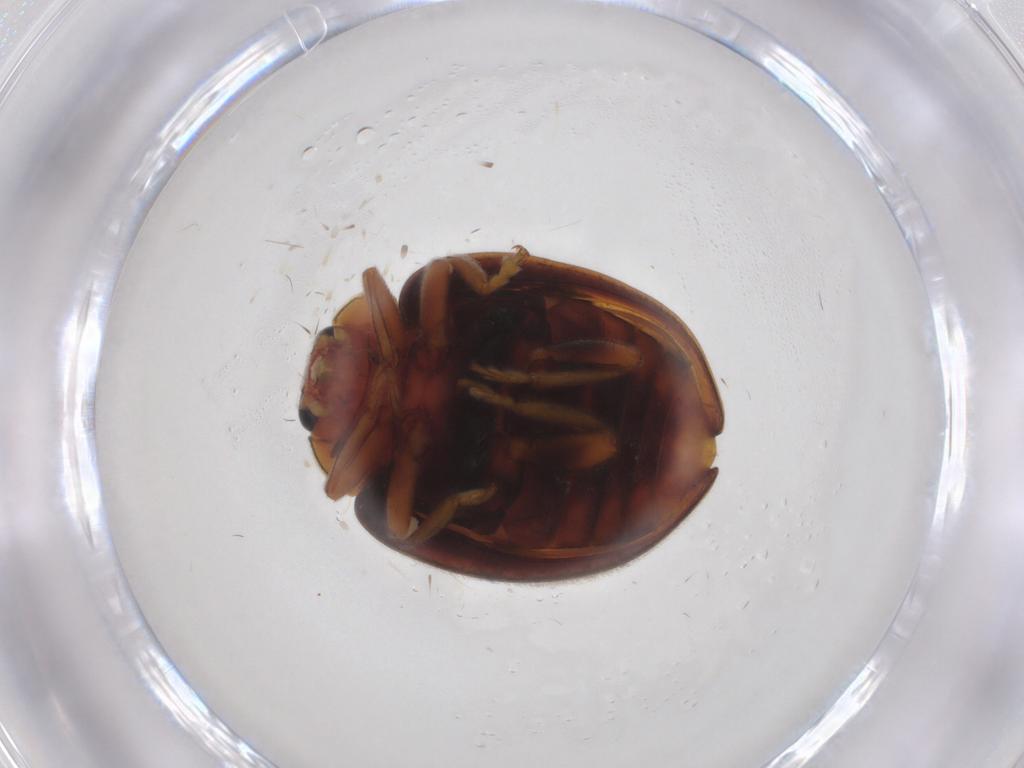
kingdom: Animalia
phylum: Arthropoda
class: Insecta
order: Coleoptera
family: Coccinellidae
